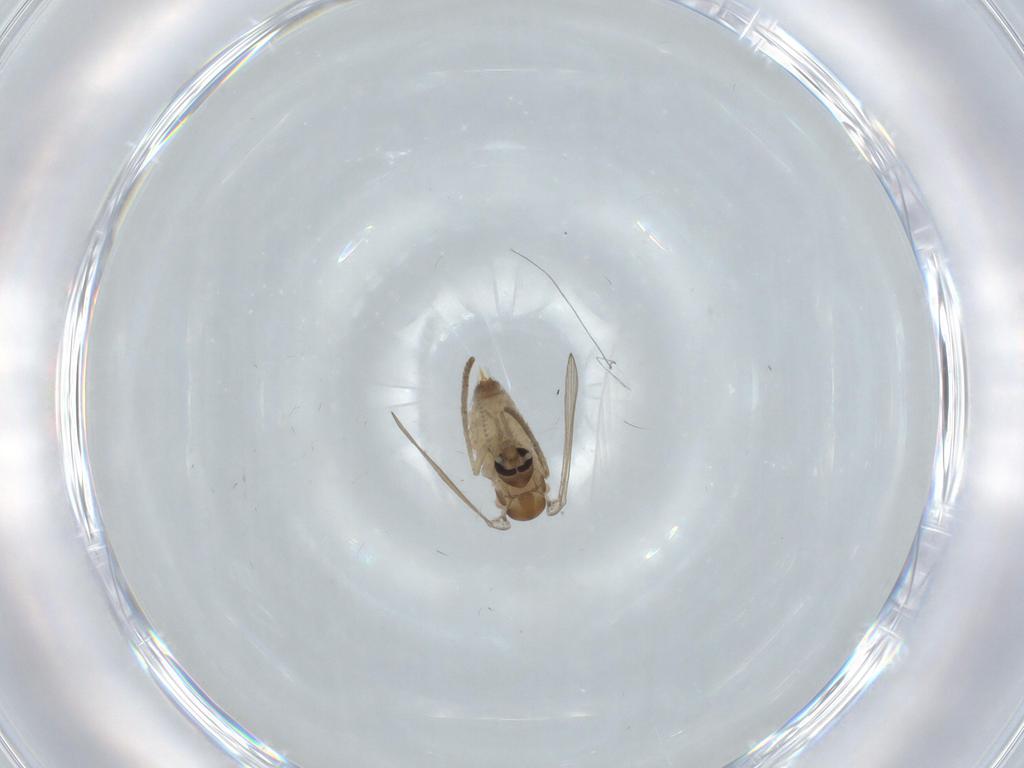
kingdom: Animalia
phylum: Arthropoda
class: Insecta
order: Diptera
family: Psychodidae
